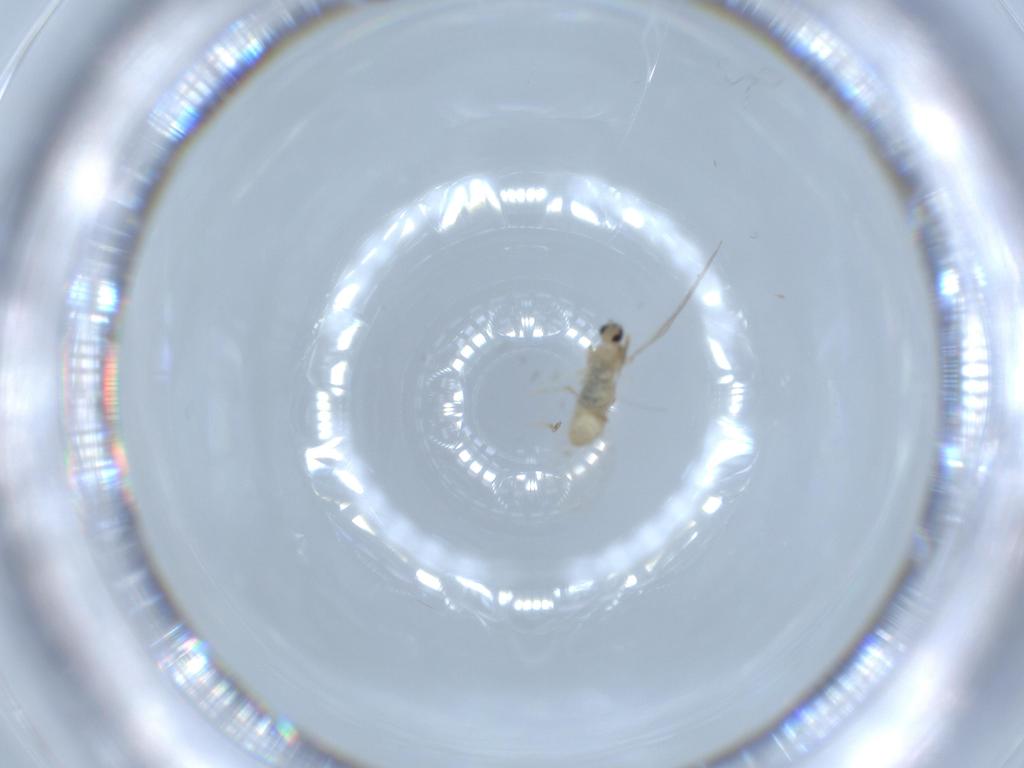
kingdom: Animalia
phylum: Arthropoda
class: Insecta
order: Diptera
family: Cecidomyiidae
